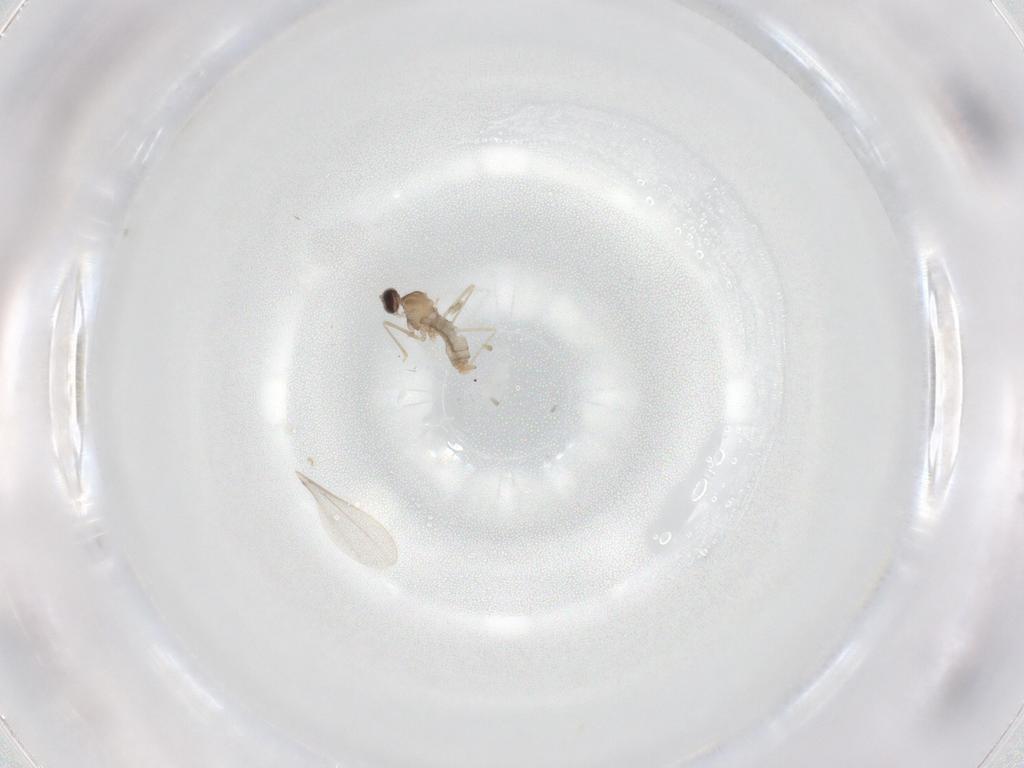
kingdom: Animalia
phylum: Arthropoda
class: Insecta
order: Diptera
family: Cecidomyiidae
